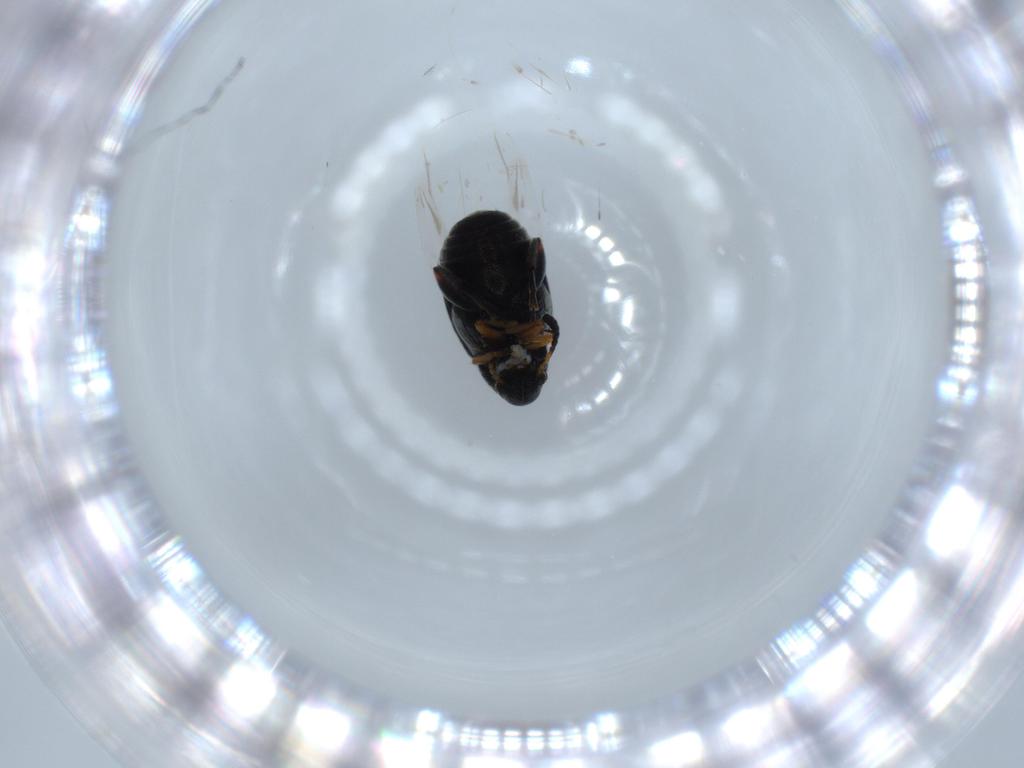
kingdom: Animalia
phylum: Arthropoda
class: Insecta
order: Coleoptera
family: Chrysomelidae
